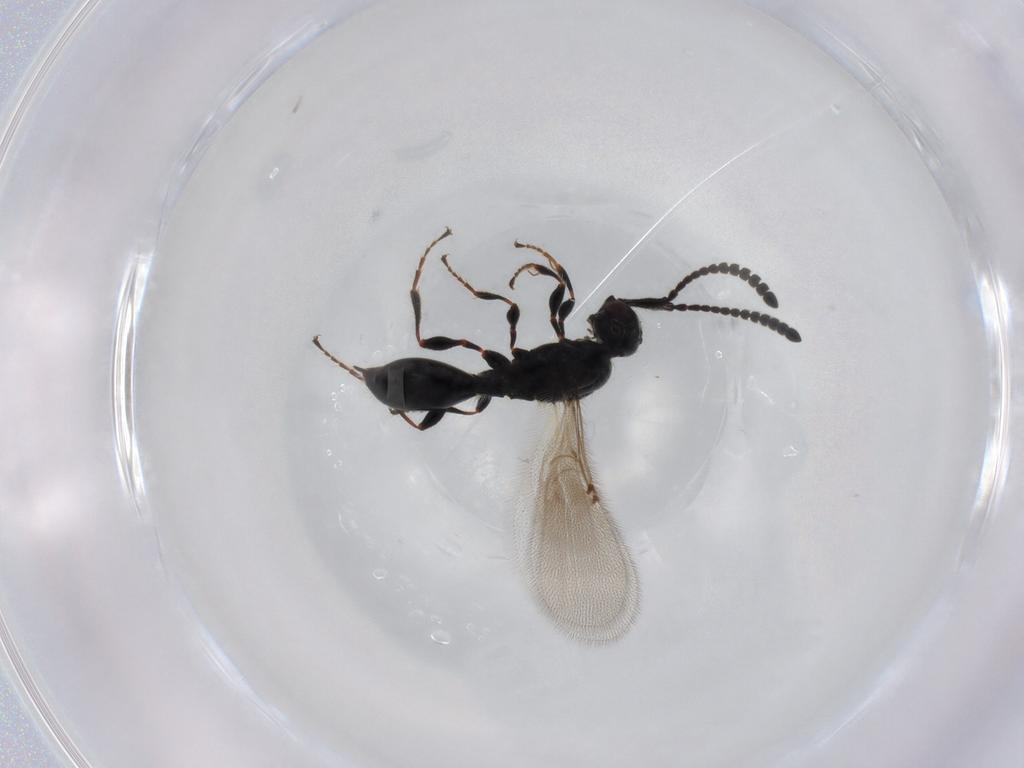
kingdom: Animalia
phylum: Arthropoda
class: Insecta
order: Hymenoptera
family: Diapriidae
